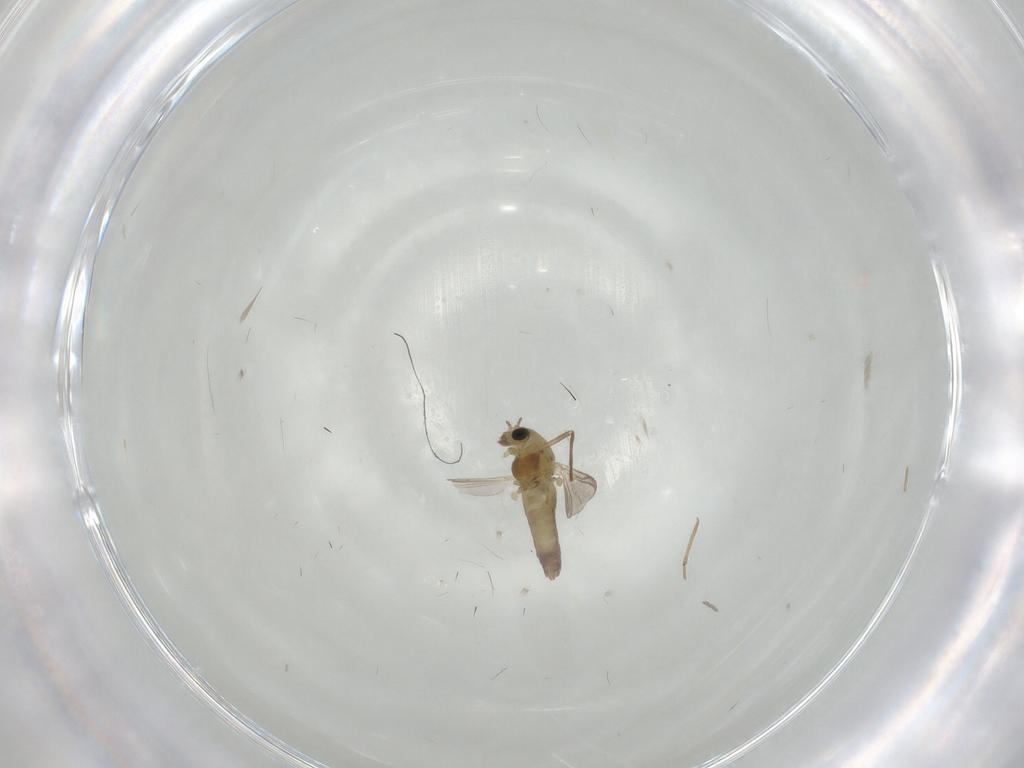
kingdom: Animalia
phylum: Arthropoda
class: Insecta
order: Diptera
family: Chironomidae
